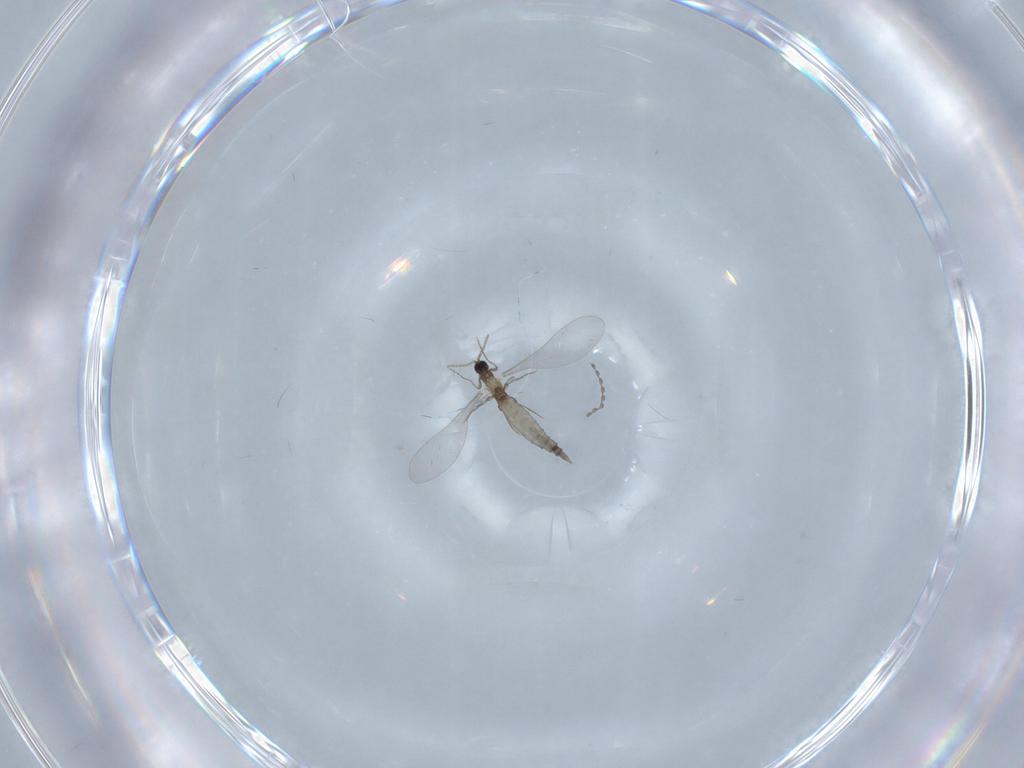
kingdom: Animalia
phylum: Arthropoda
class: Insecta
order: Diptera
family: Cecidomyiidae
